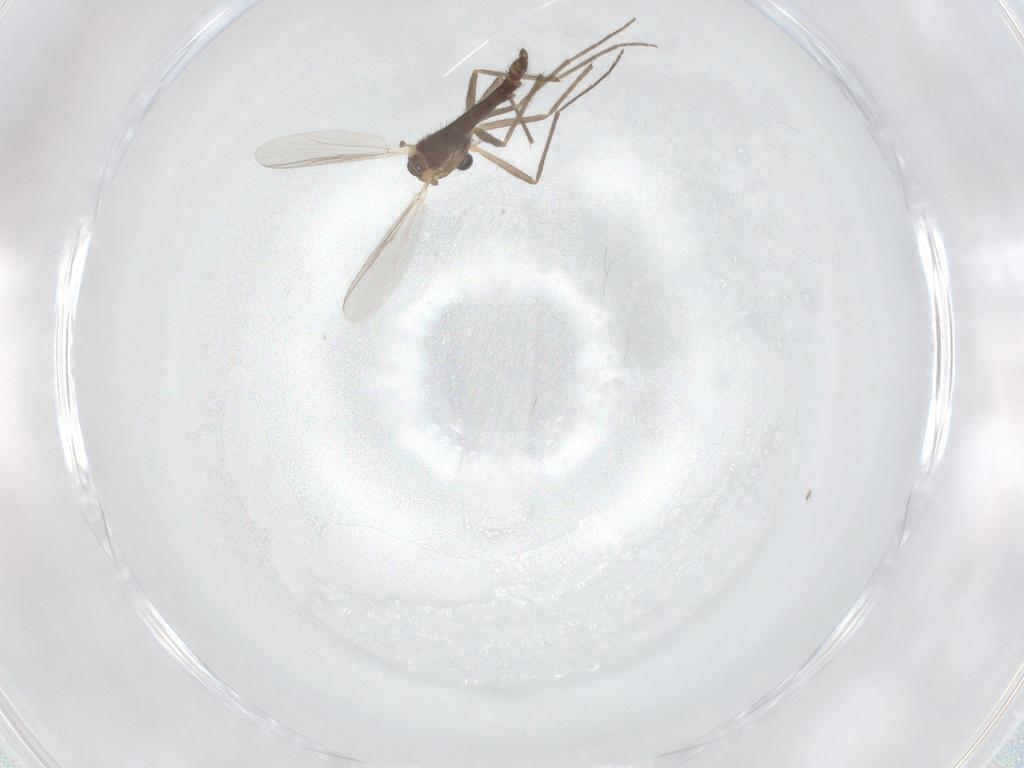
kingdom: Animalia
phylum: Arthropoda
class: Insecta
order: Diptera
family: Chironomidae
